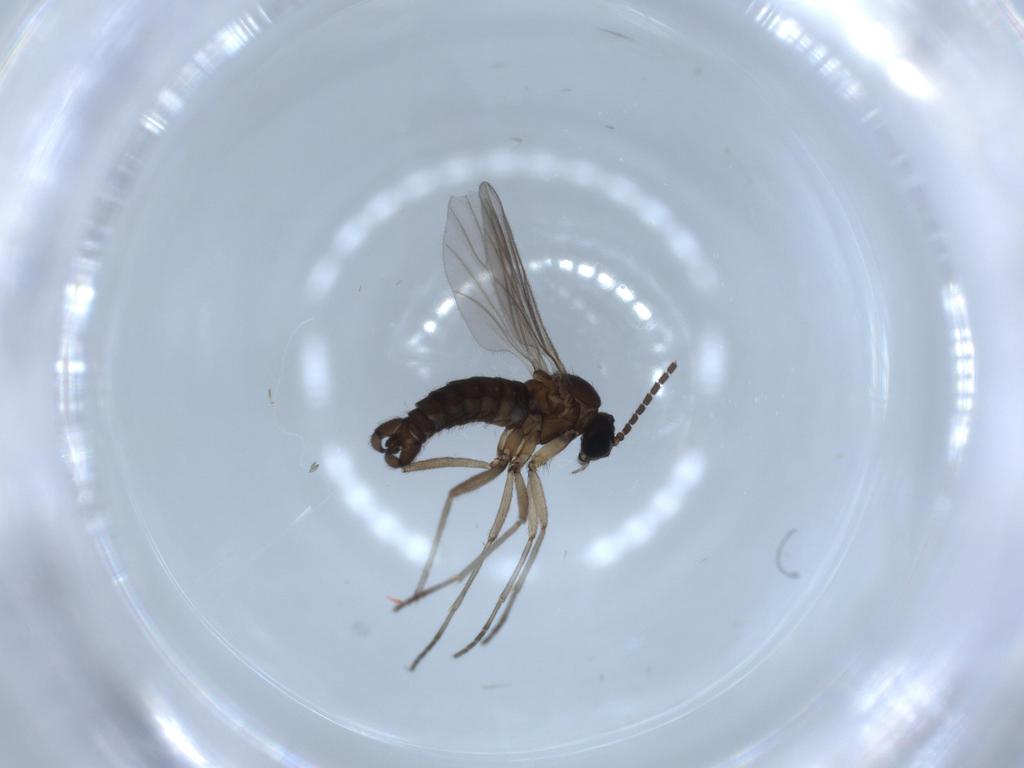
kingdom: Animalia
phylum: Arthropoda
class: Insecta
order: Diptera
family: Sciaridae
